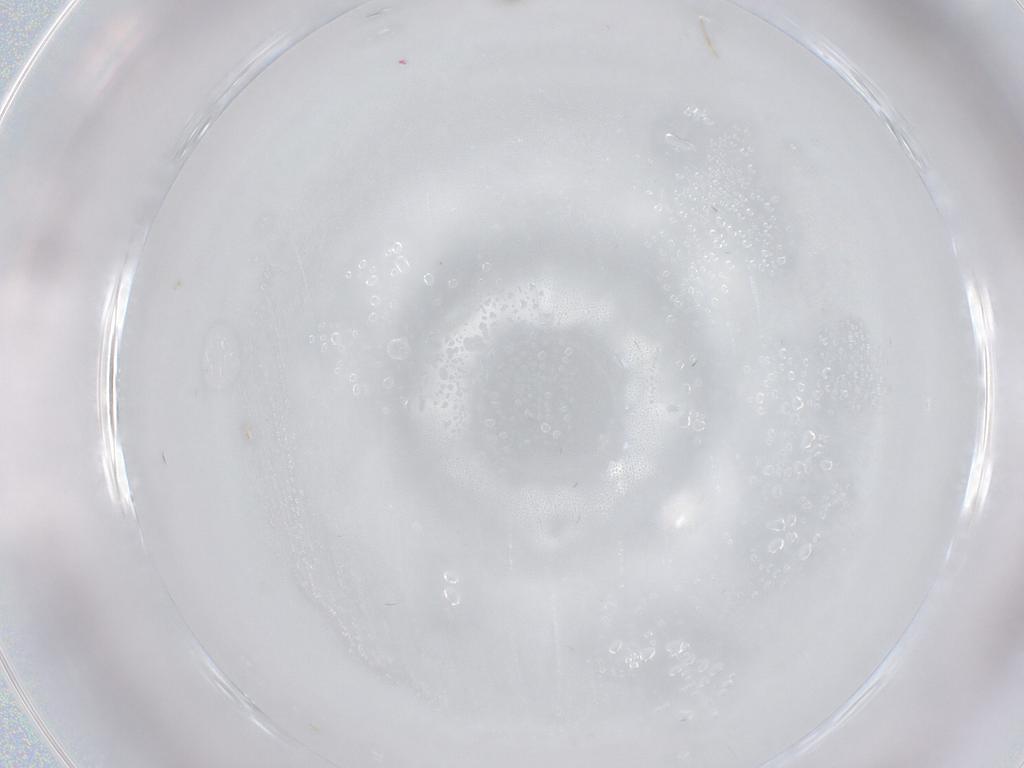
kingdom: Animalia
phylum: Arthropoda
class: Insecta
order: Diptera
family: Cecidomyiidae
